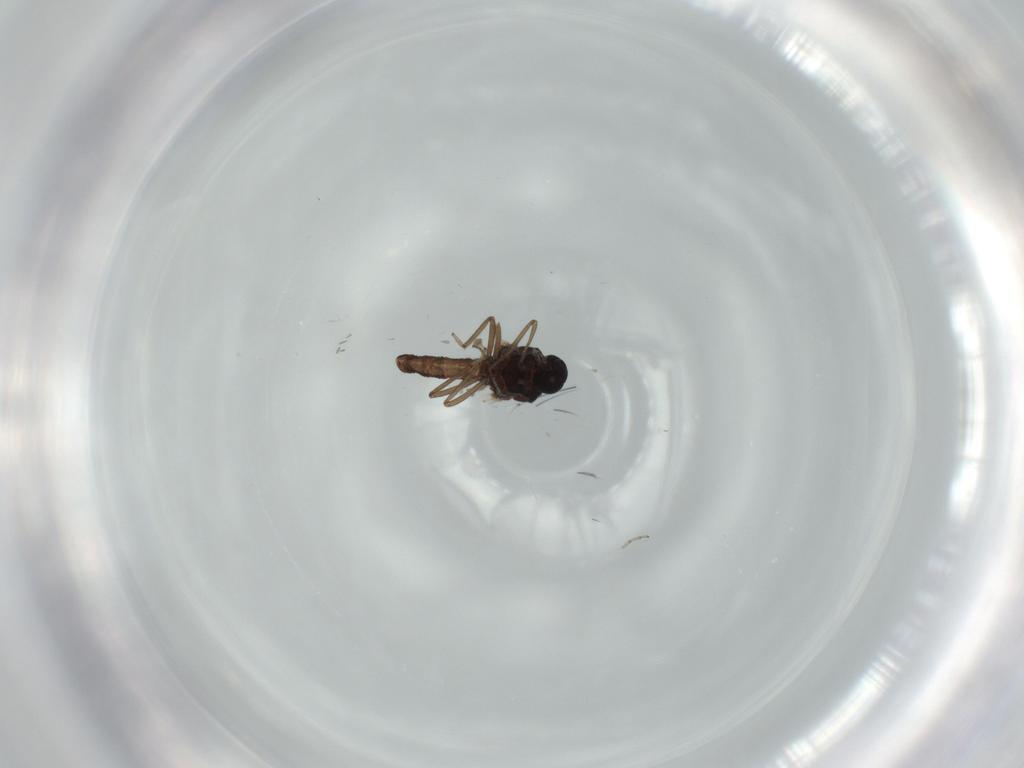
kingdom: Animalia
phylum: Arthropoda
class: Insecta
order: Diptera
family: Ceratopogonidae
